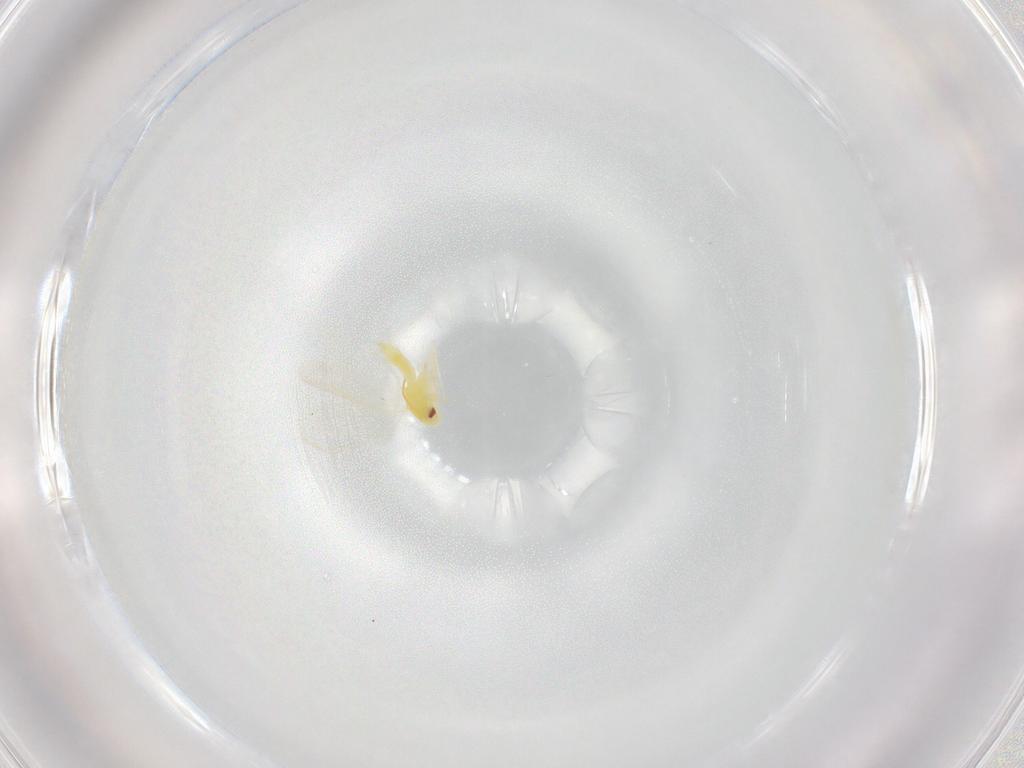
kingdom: Animalia
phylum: Arthropoda
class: Insecta
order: Hemiptera
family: Aleyrodidae
